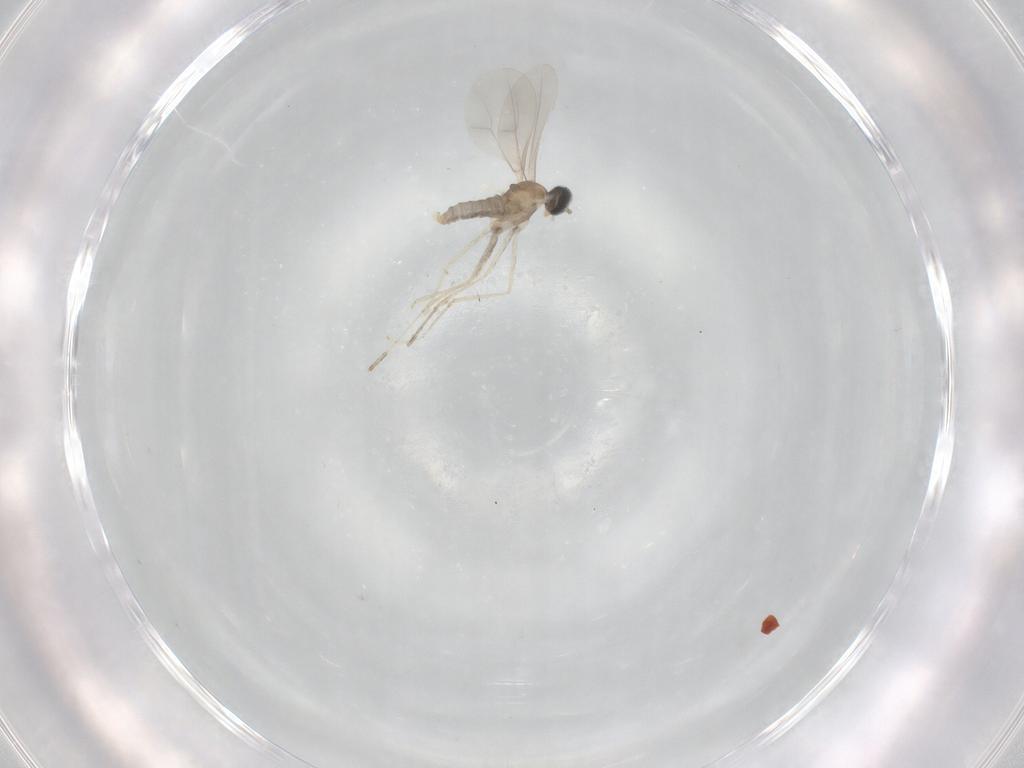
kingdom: Animalia
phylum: Arthropoda
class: Insecta
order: Diptera
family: Cecidomyiidae
